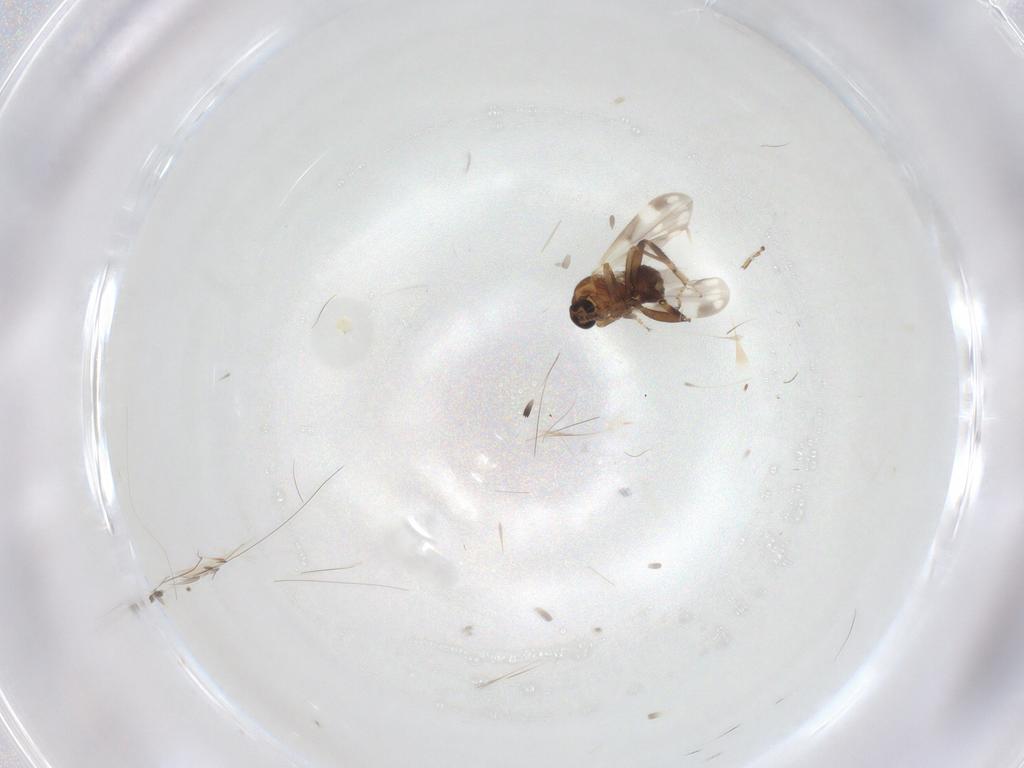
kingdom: Animalia
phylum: Arthropoda
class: Insecta
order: Diptera
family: Ceratopogonidae
